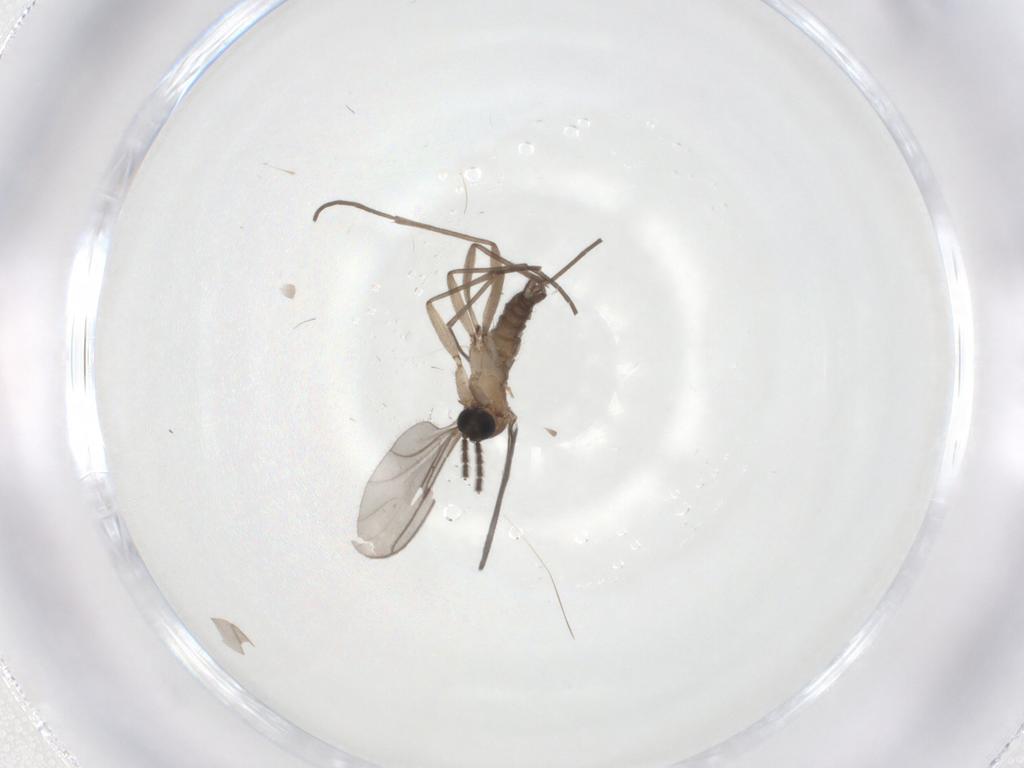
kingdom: Animalia
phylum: Arthropoda
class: Insecta
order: Diptera
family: Sciaridae
